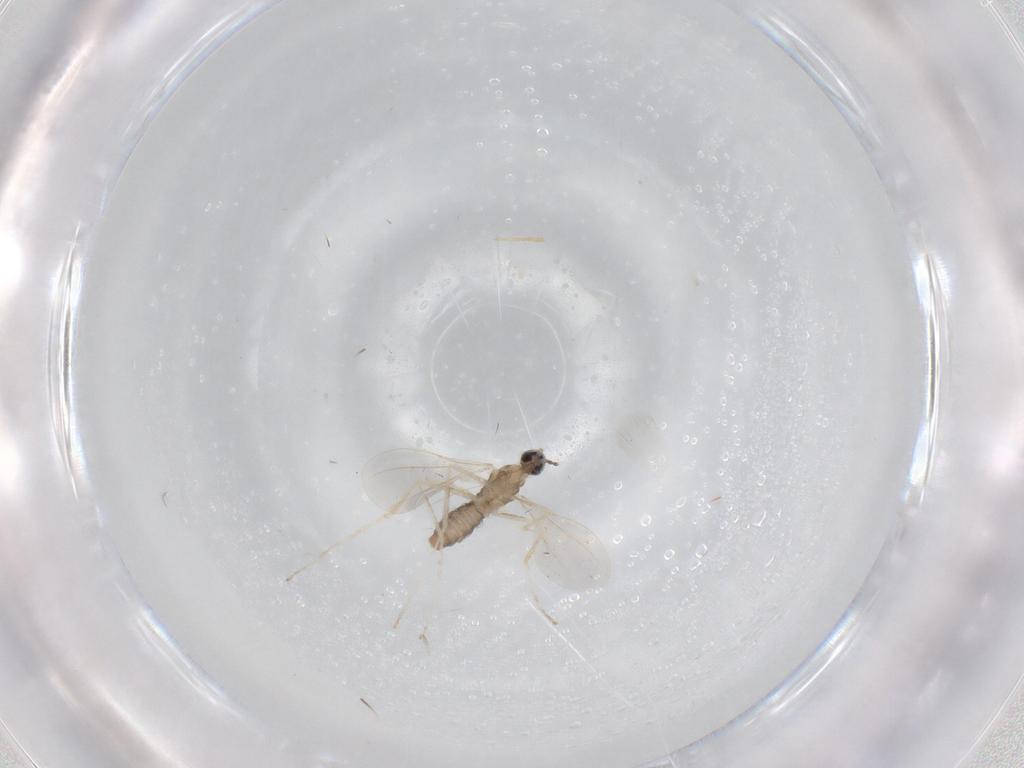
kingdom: Animalia
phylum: Arthropoda
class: Insecta
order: Diptera
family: Cecidomyiidae
